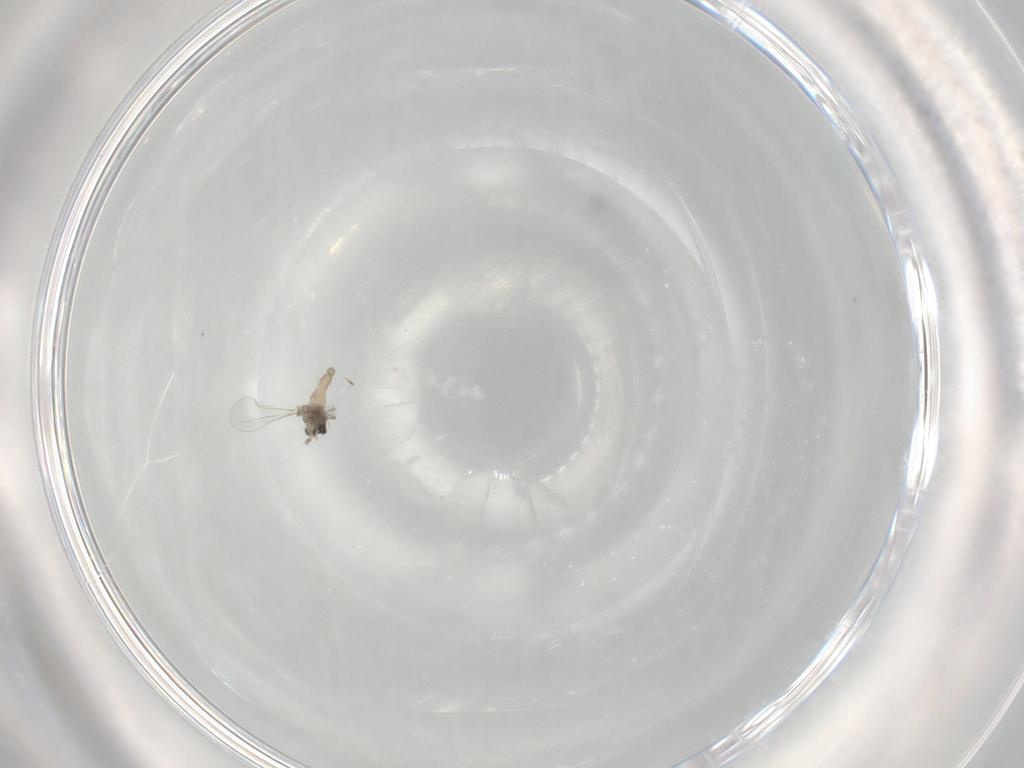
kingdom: Animalia
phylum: Arthropoda
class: Insecta
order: Diptera
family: Cecidomyiidae
